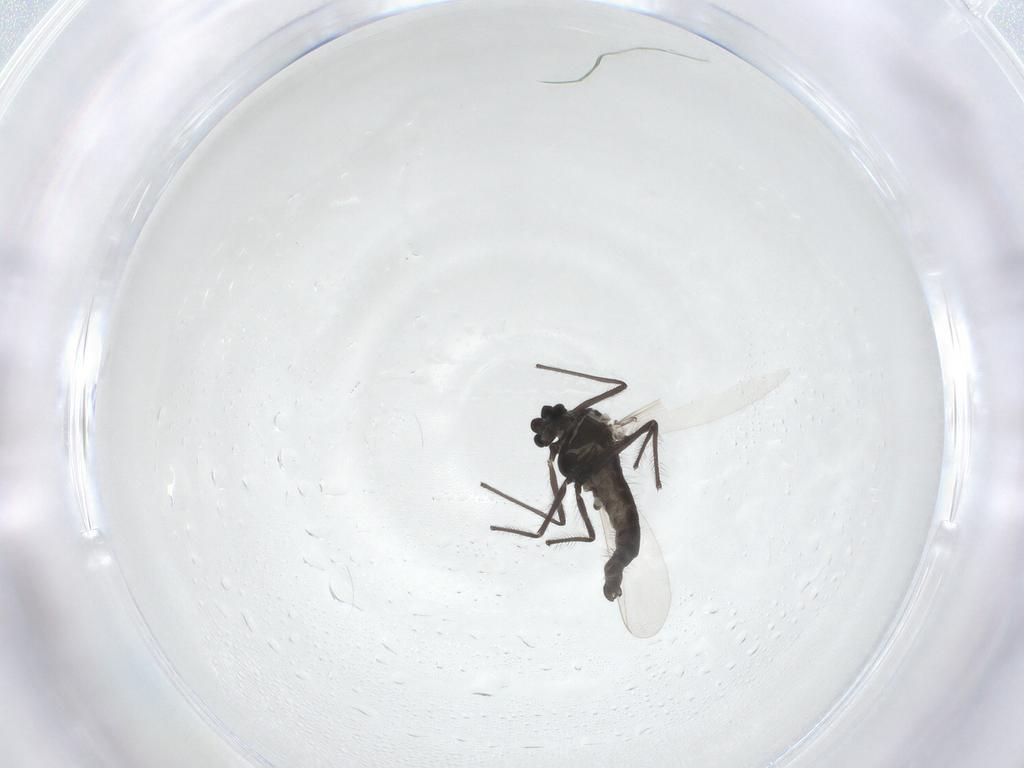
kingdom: Animalia
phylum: Arthropoda
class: Insecta
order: Diptera
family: Chironomidae
